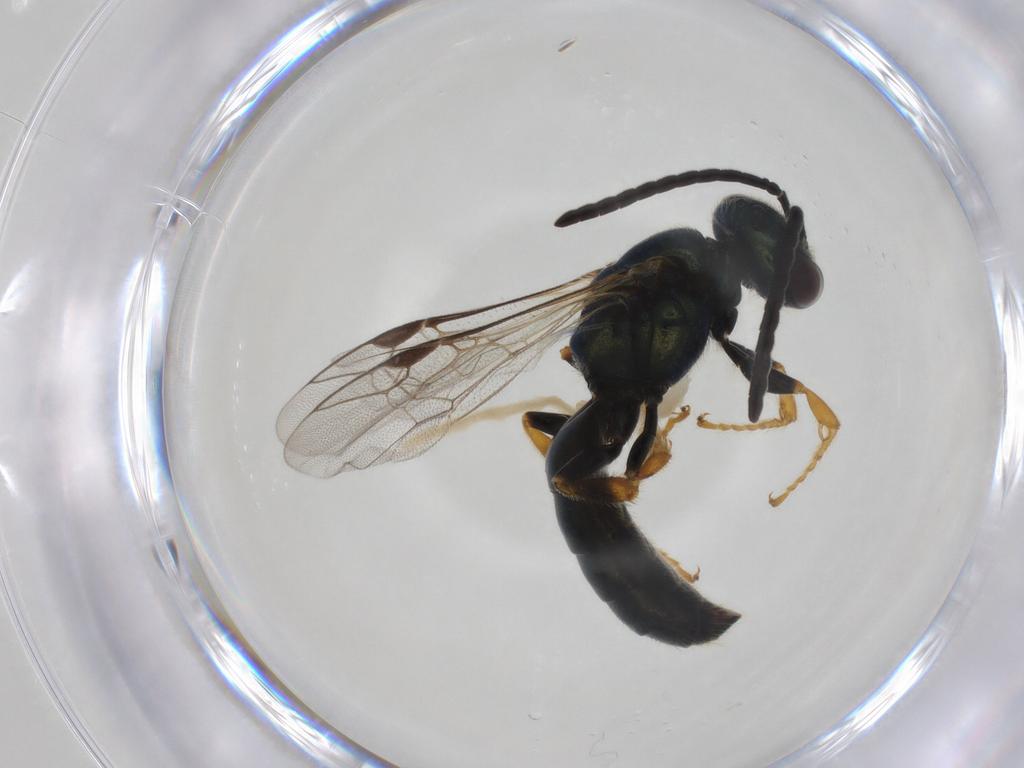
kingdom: Animalia
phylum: Arthropoda
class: Insecta
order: Hymenoptera
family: Halictidae
